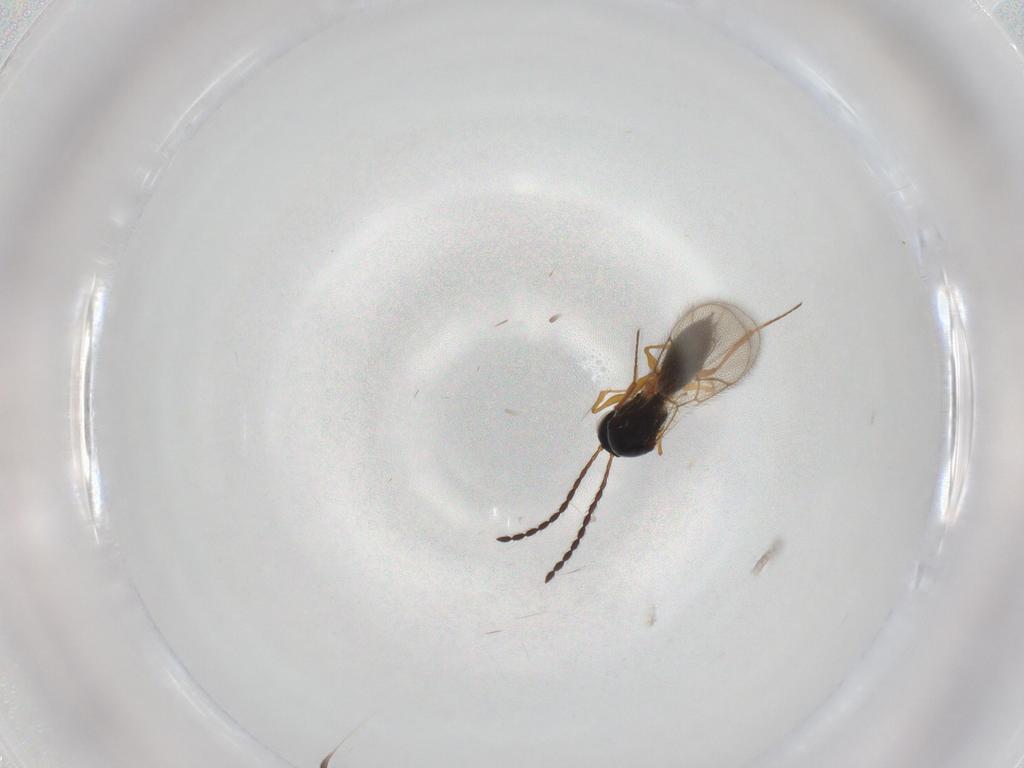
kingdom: Animalia
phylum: Arthropoda
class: Insecta
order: Hymenoptera
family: Figitidae
